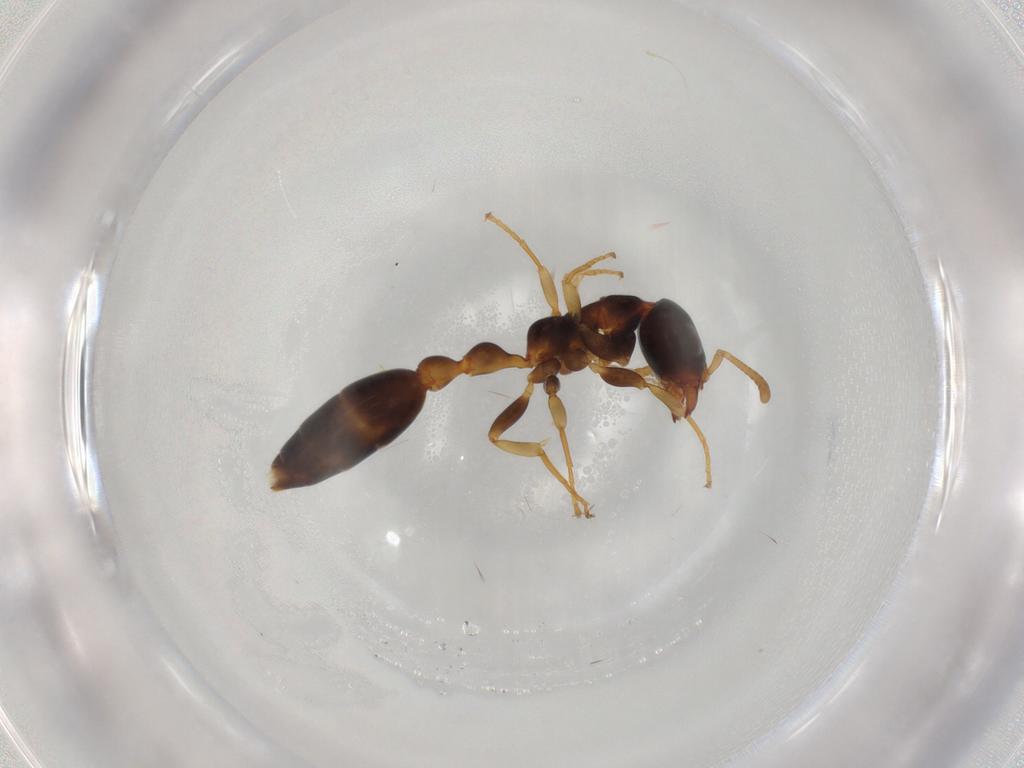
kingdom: Animalia
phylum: Arthropoda
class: Insecta
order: Hymenoptera
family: Formicidae
